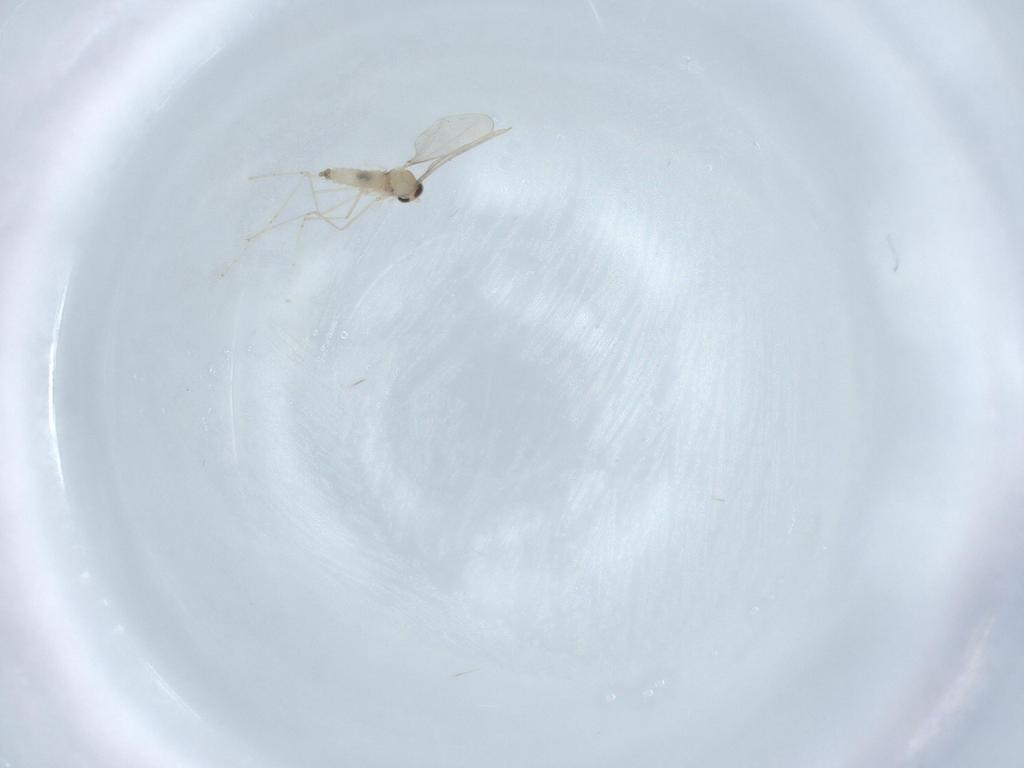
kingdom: Animalia
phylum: Arthropoda
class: Insecta
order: Diptera
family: Cecidomyiidae
